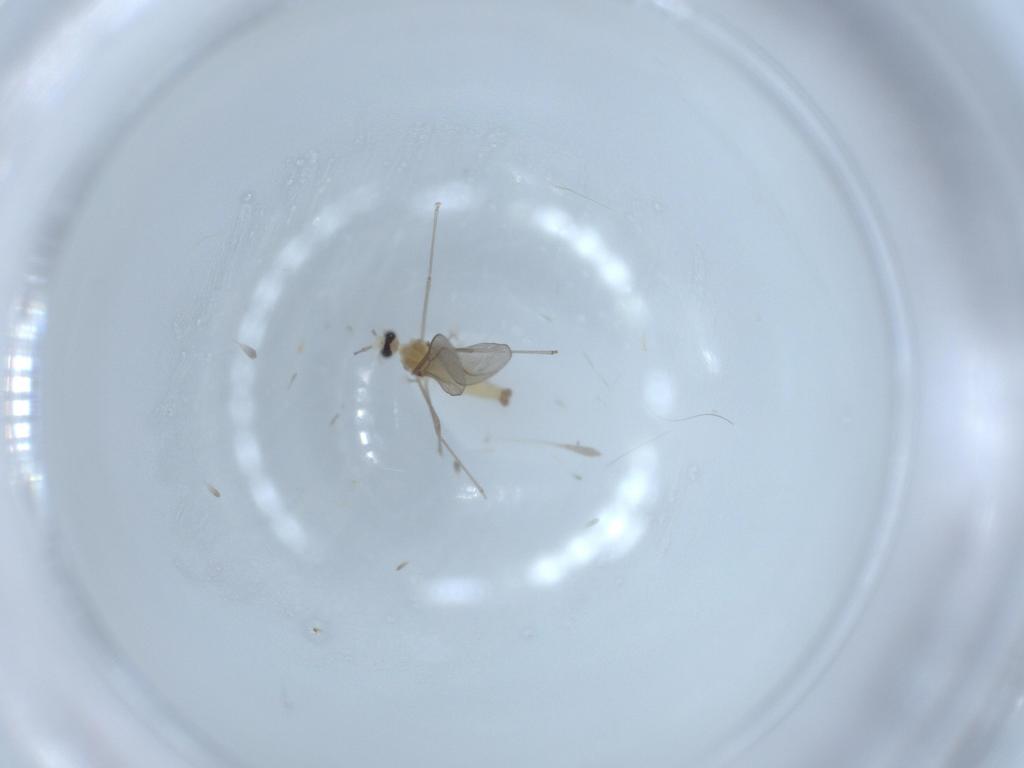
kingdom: Animalia
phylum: Arthropoda
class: Insecta
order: Diptera
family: Cecidomyiidae
